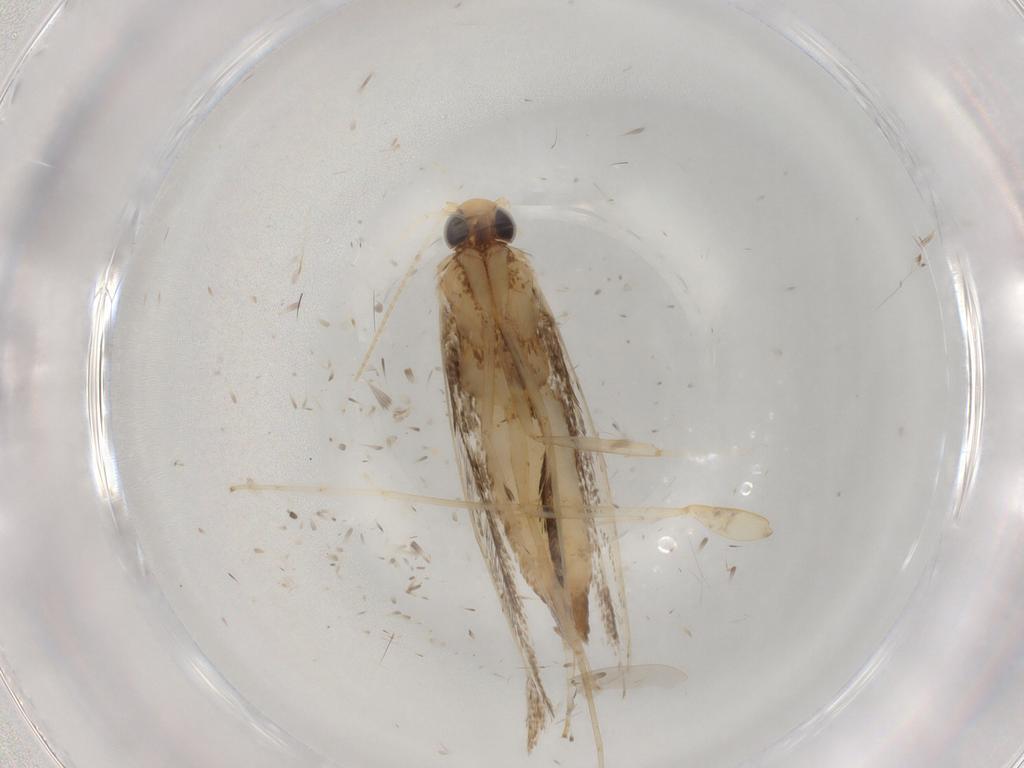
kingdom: Animalia
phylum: Arthropoda
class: Insecta
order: Lepidoptera
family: Gracillariidae
